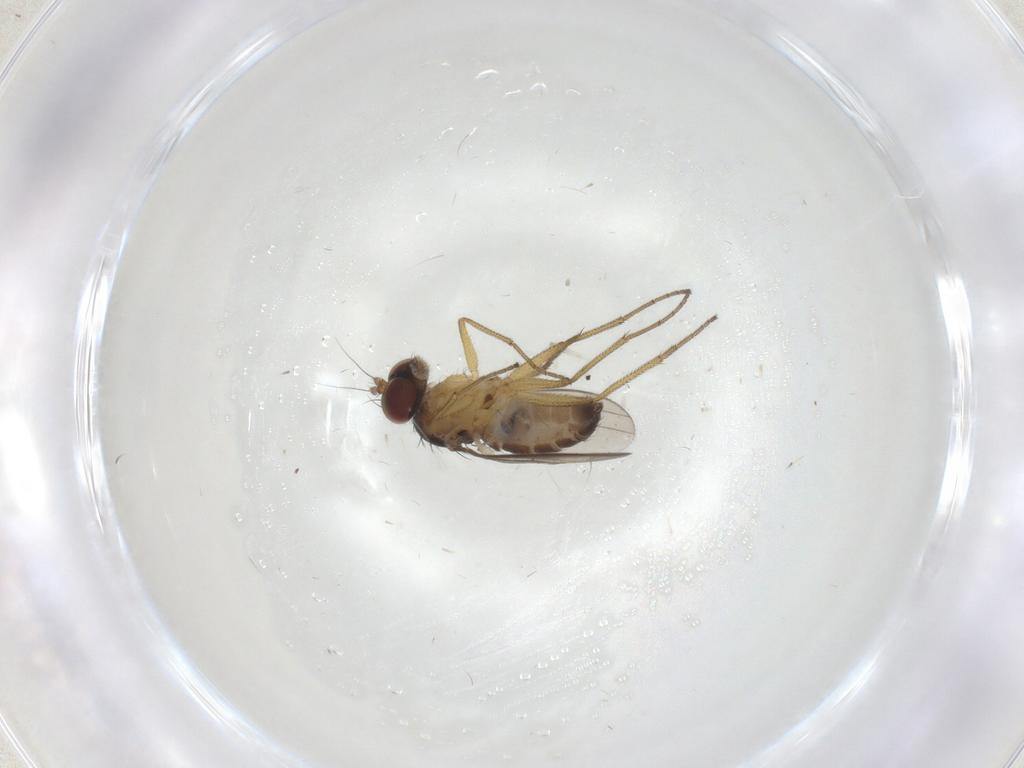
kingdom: Animalia
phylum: Arthropoda
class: Insecta
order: Diptera
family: Dolichopodidae
